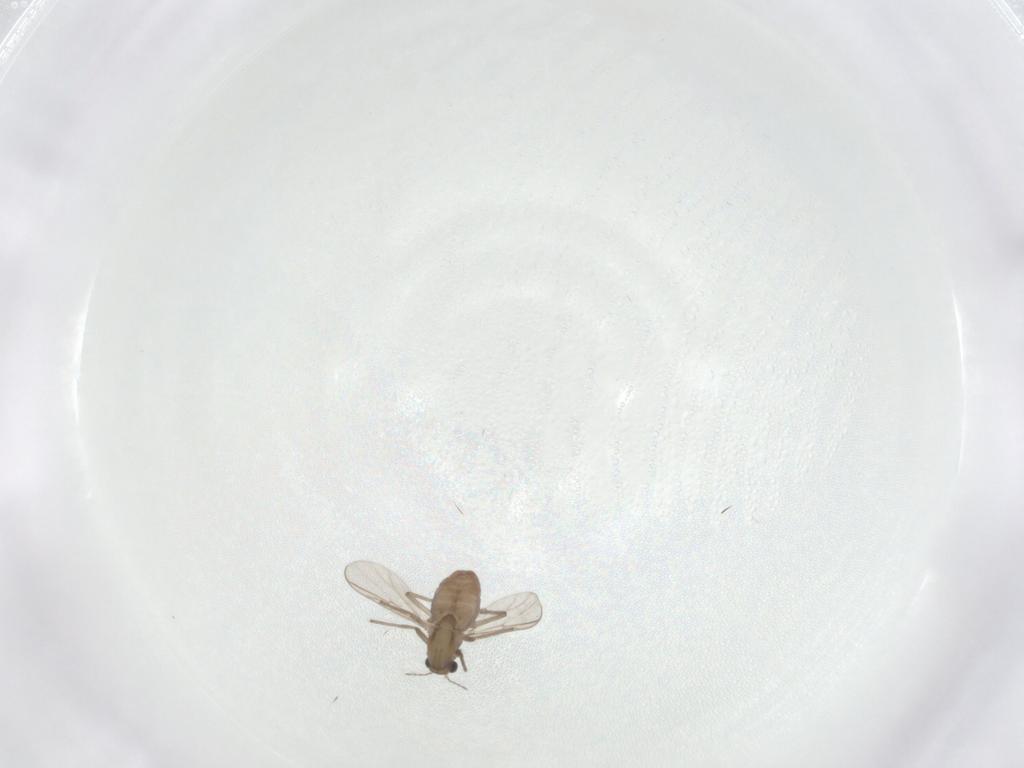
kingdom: Animalia
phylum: Arthropoda
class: Insecta
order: Diptera
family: Chironomidae
